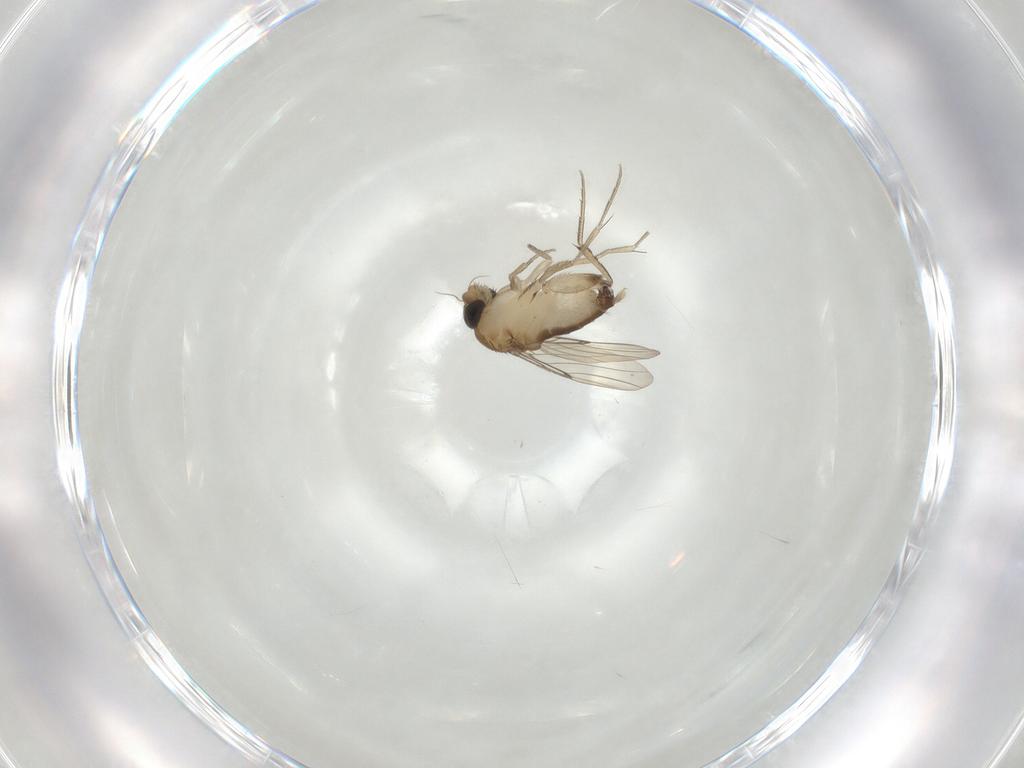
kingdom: Animalia
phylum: Arthropoda
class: Insecta
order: Diptera
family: Phoridae
